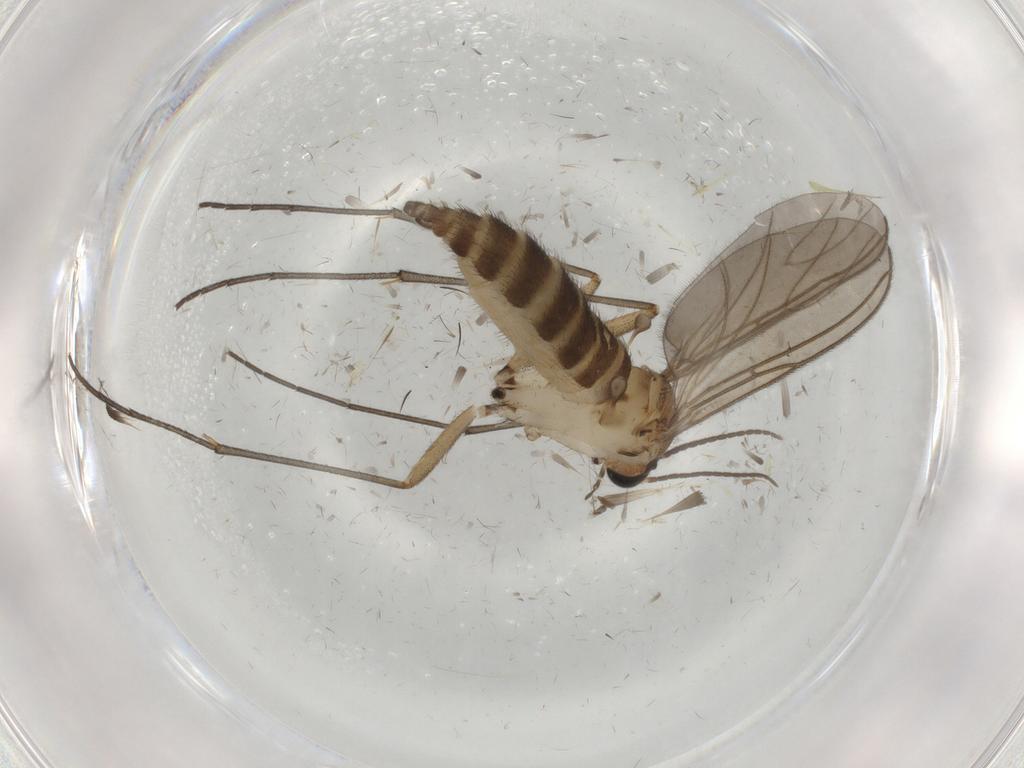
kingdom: Animalia
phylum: Arthropoda
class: Insecta
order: Diptera
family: Sciaridae
